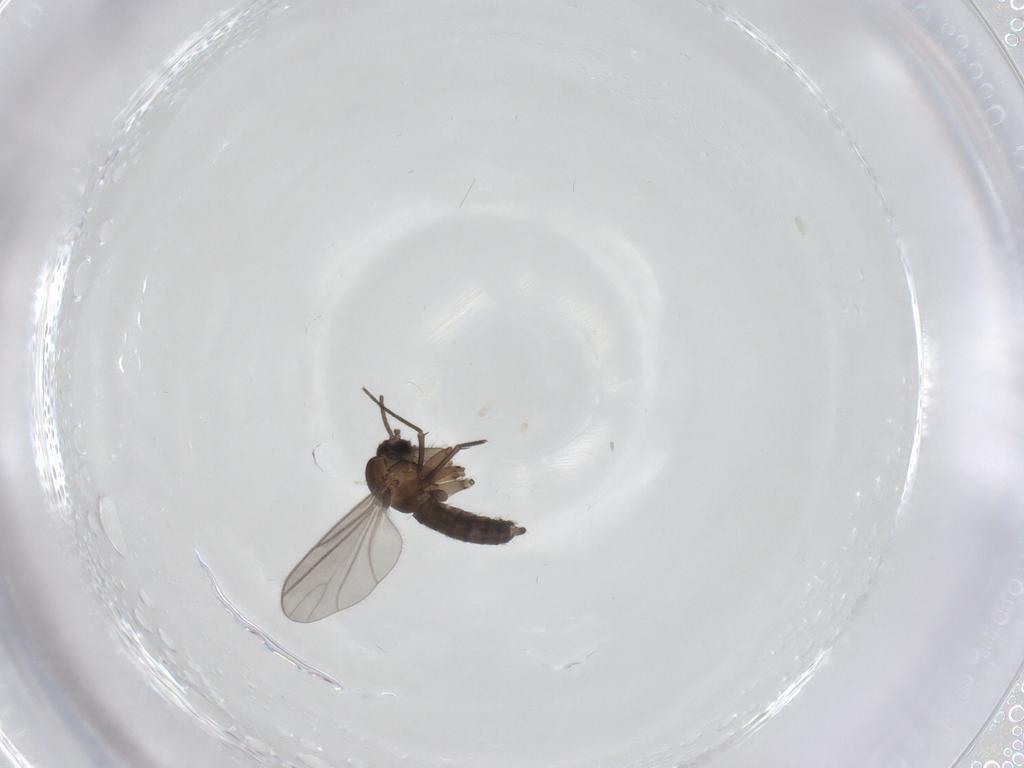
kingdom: Animalia
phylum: Arthropoda
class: Insecta
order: Diptera
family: Sciaridae
